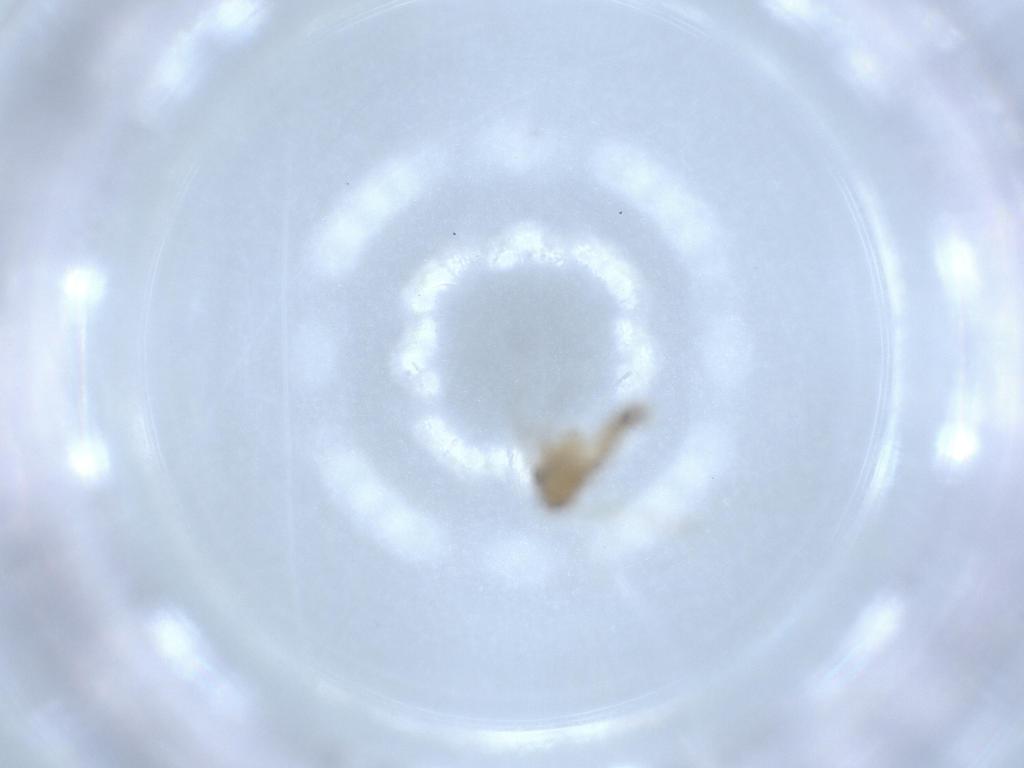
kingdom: Animalia
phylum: Arthropoda
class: Insecta
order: Diptera
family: Psychodidae
